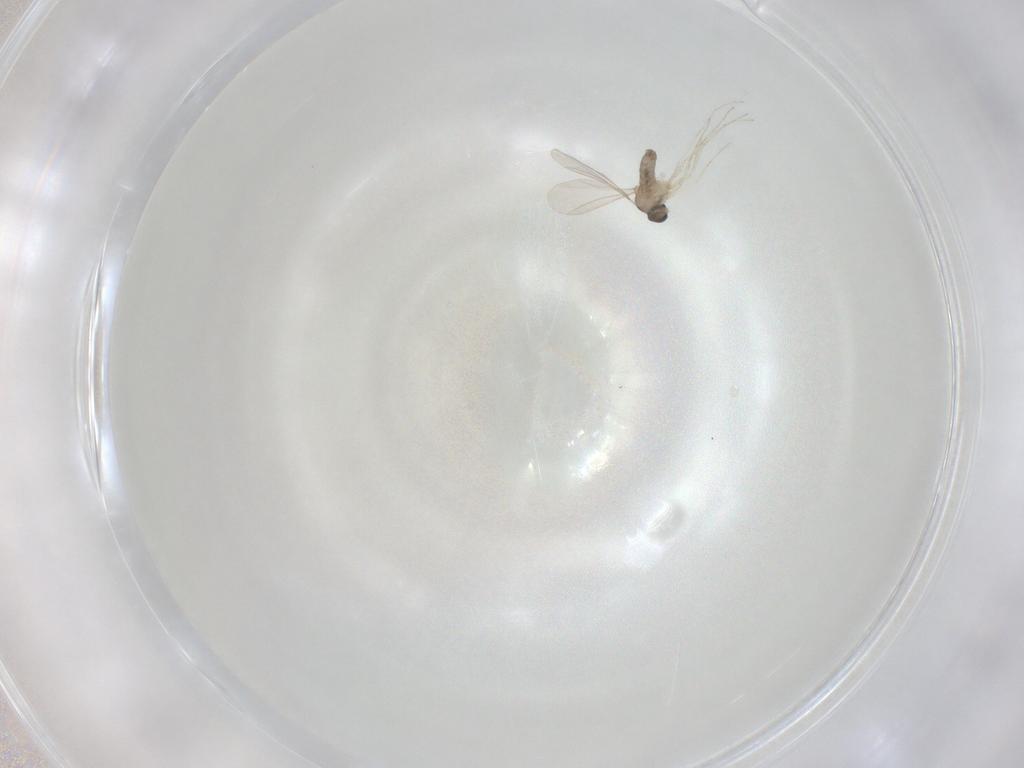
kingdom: Animalia
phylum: Arthropoda
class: Insecta
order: Diptera
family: Cecidomyiidae
